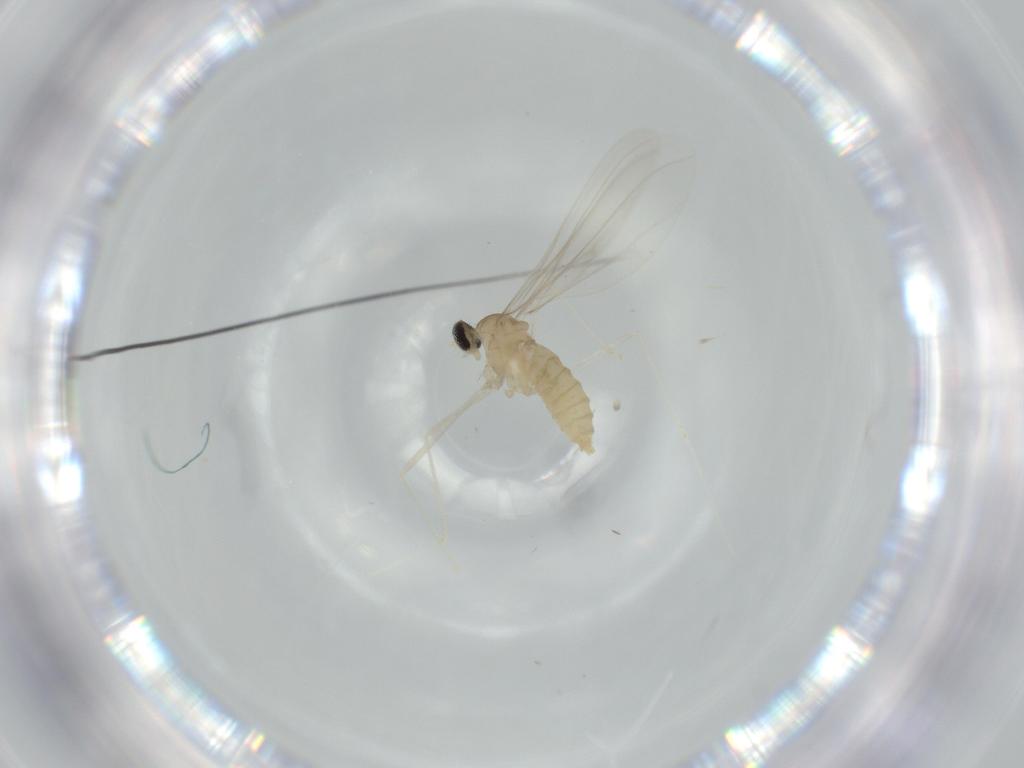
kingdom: Animalia
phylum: Arthropoda
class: Insecta
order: Diptera
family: Cecidomyiidae
